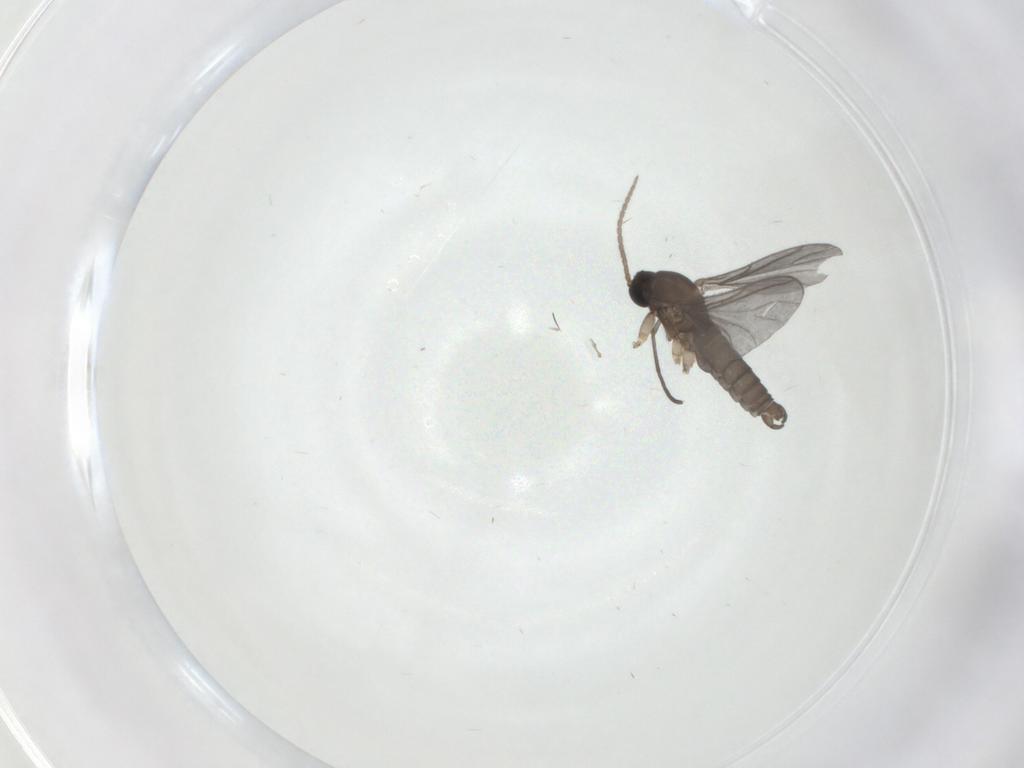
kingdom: Animalia
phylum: Arthropoda
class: Insecta
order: Diptera
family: Sciaridae
